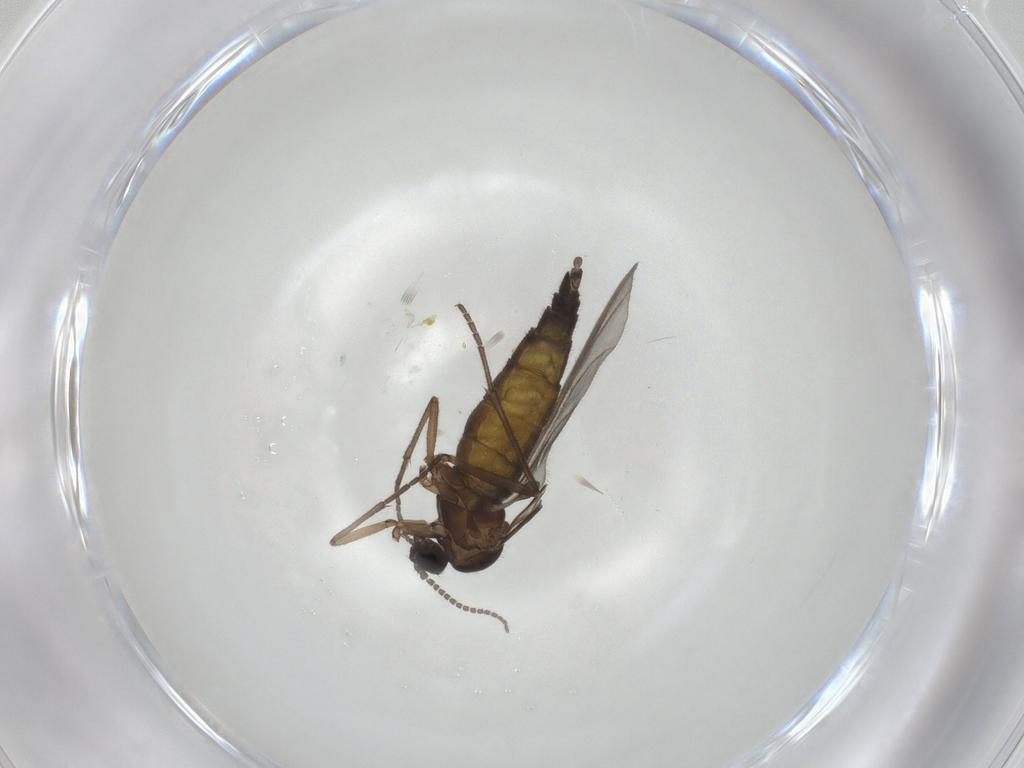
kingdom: Animalia
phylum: Arthropoda
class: Insecta
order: Diptera
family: Sciaridae
